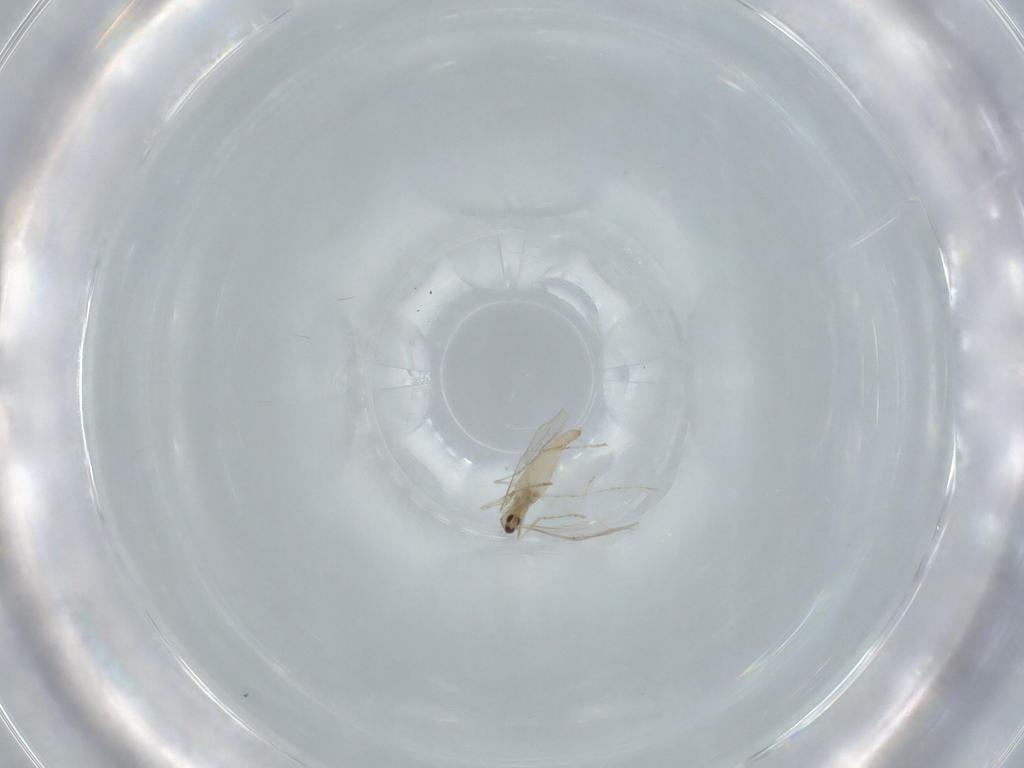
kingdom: Animalia
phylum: Arthropoda
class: Insecta
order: Diptera
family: Cecidomyiidae
